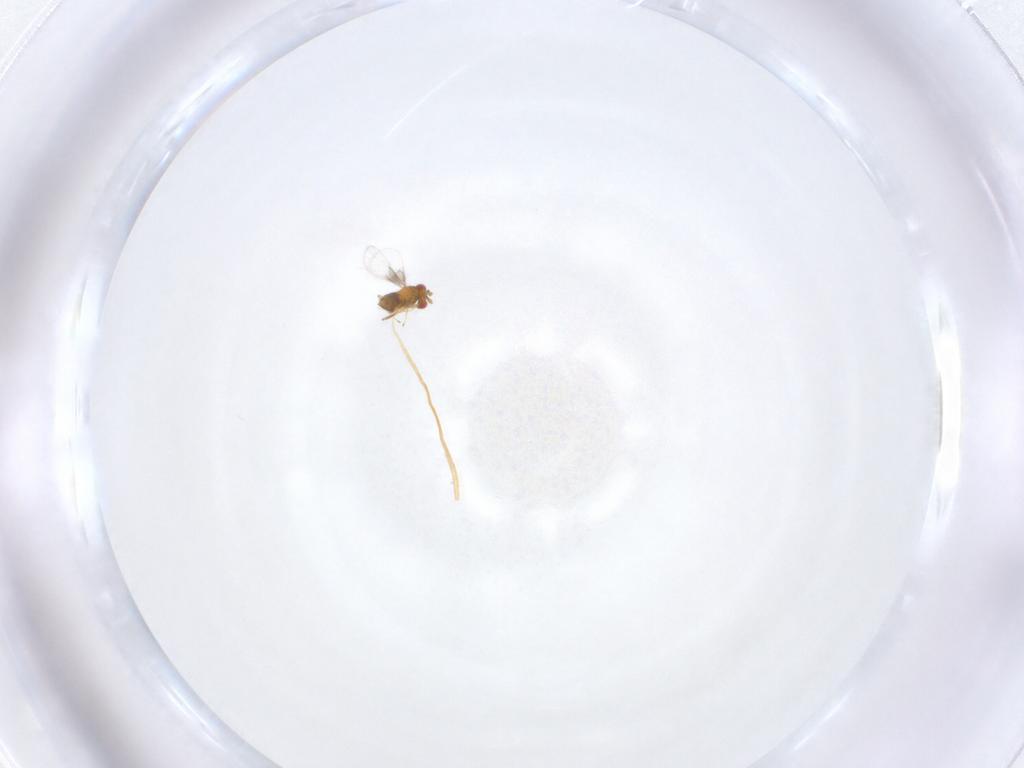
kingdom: Animalia
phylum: Arthropoda
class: Insecta
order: Hymenoptera
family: Trichogrammatidae
